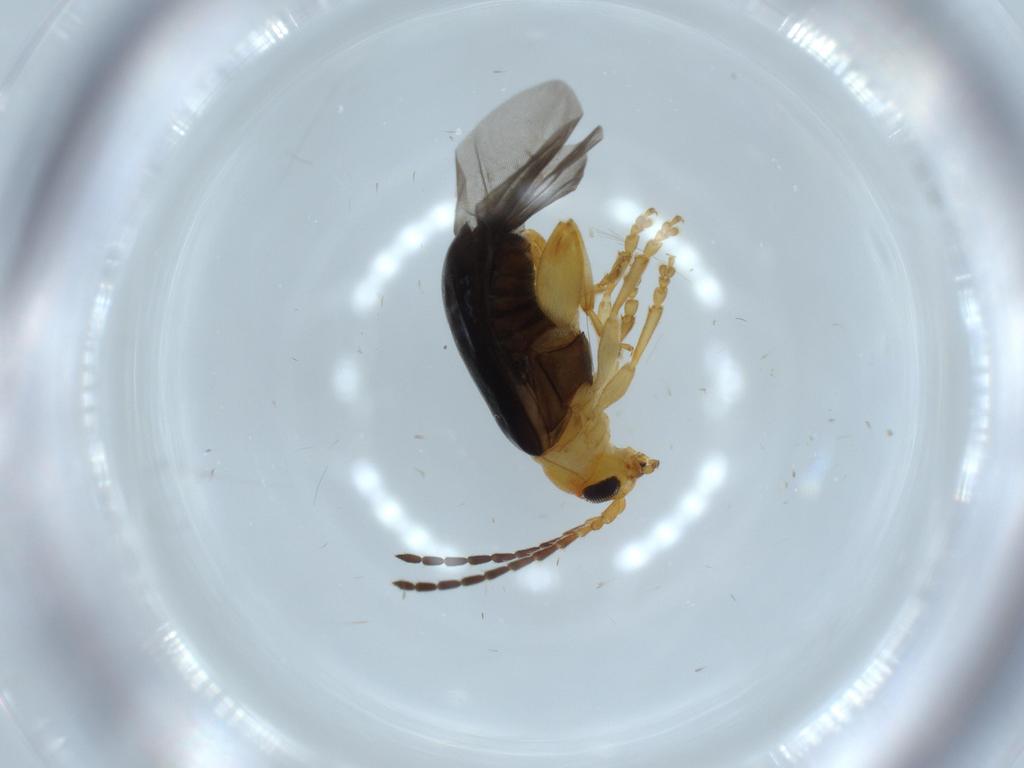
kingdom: Animalia
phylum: Arthropoda
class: Insecta
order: Coleoptera
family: Chrysomelidae
